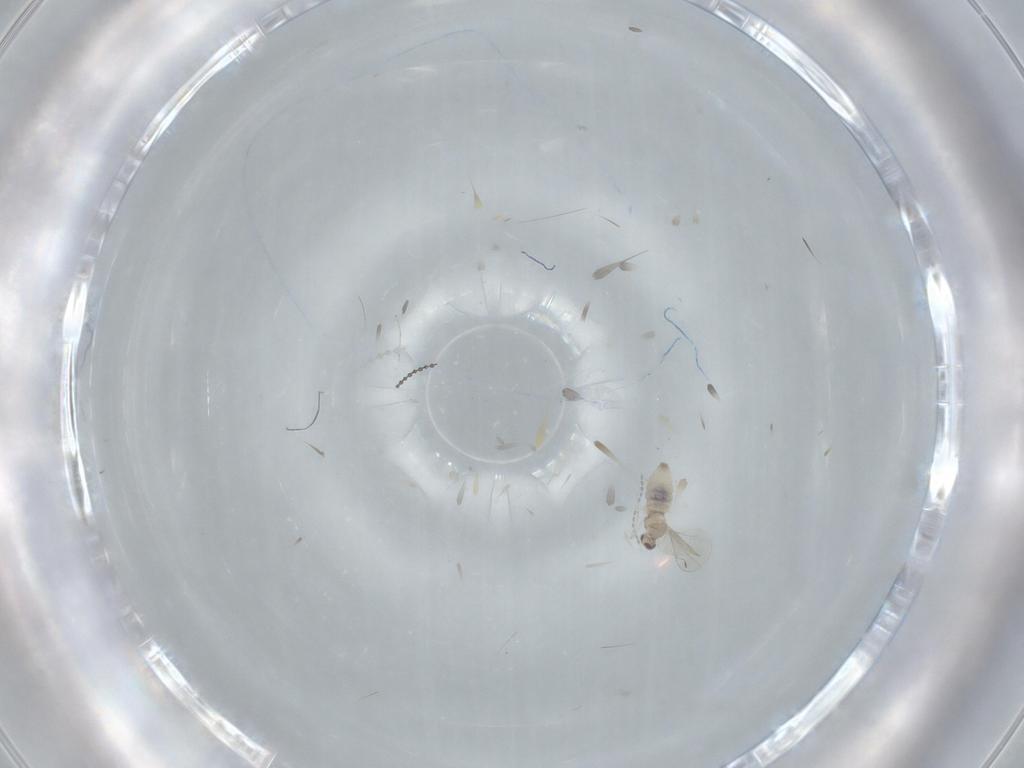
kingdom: Animalia
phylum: Arthropoda
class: Insecta
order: Diptera
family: Cecidomyiidae
